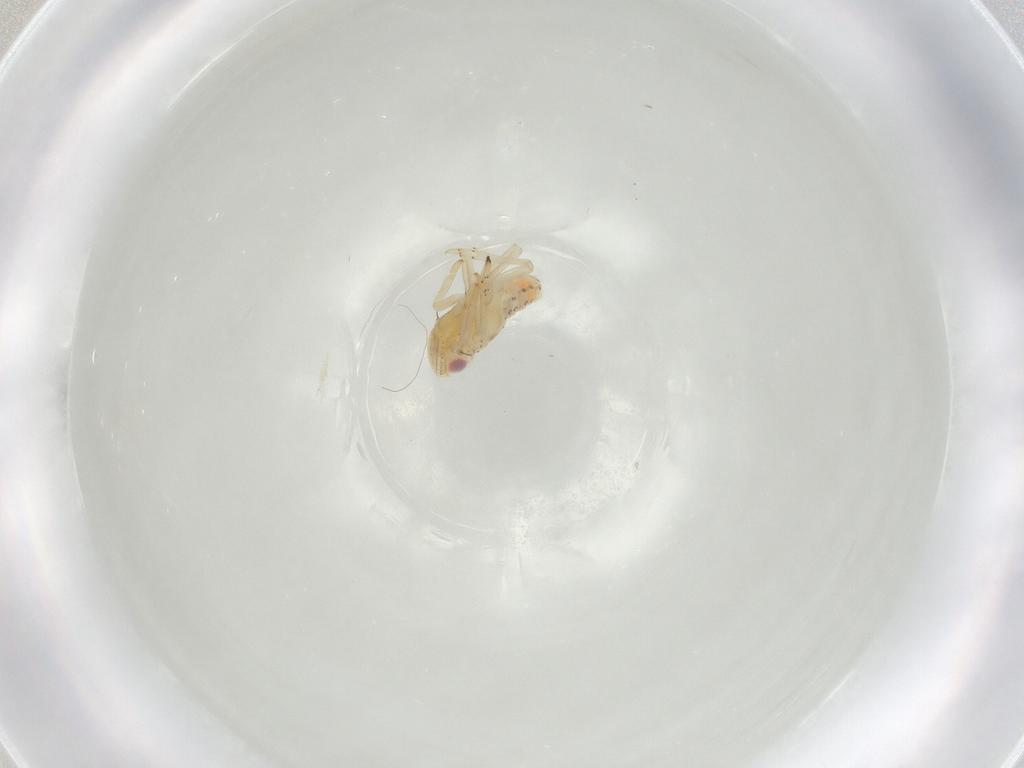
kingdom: Animalia
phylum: Arthropoda
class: Insecta
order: Hemiptera
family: Tropiduchidae
